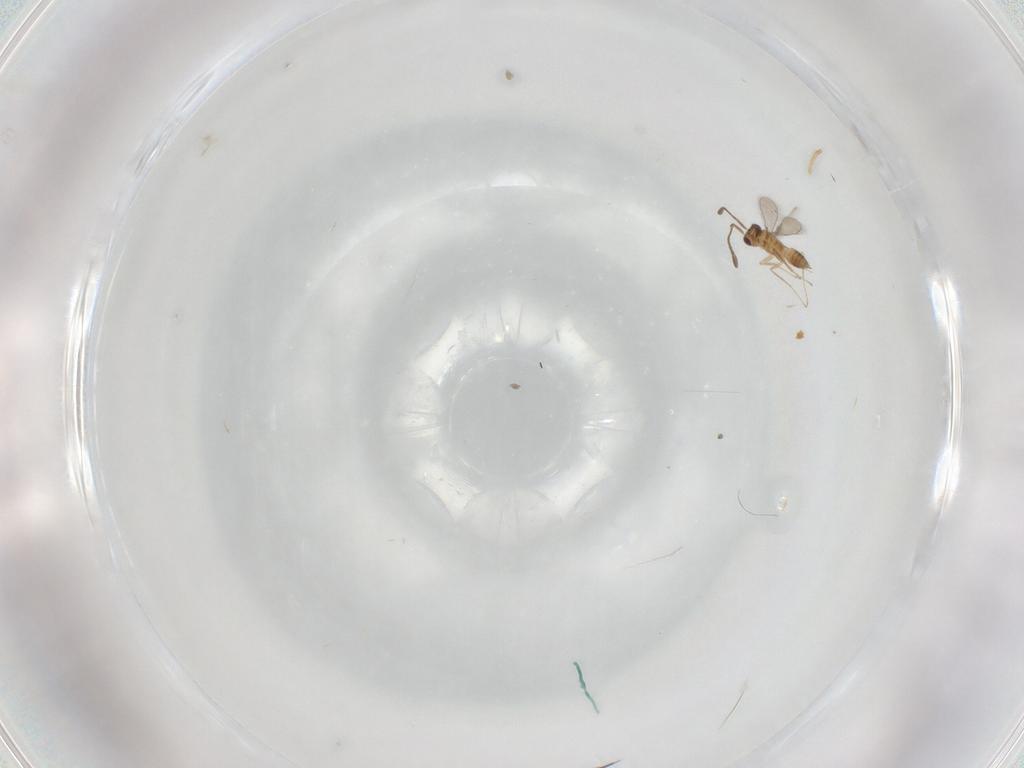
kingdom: Animalia
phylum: Arthropoda
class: Insecta
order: Hymenoptera
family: Mymaridae
